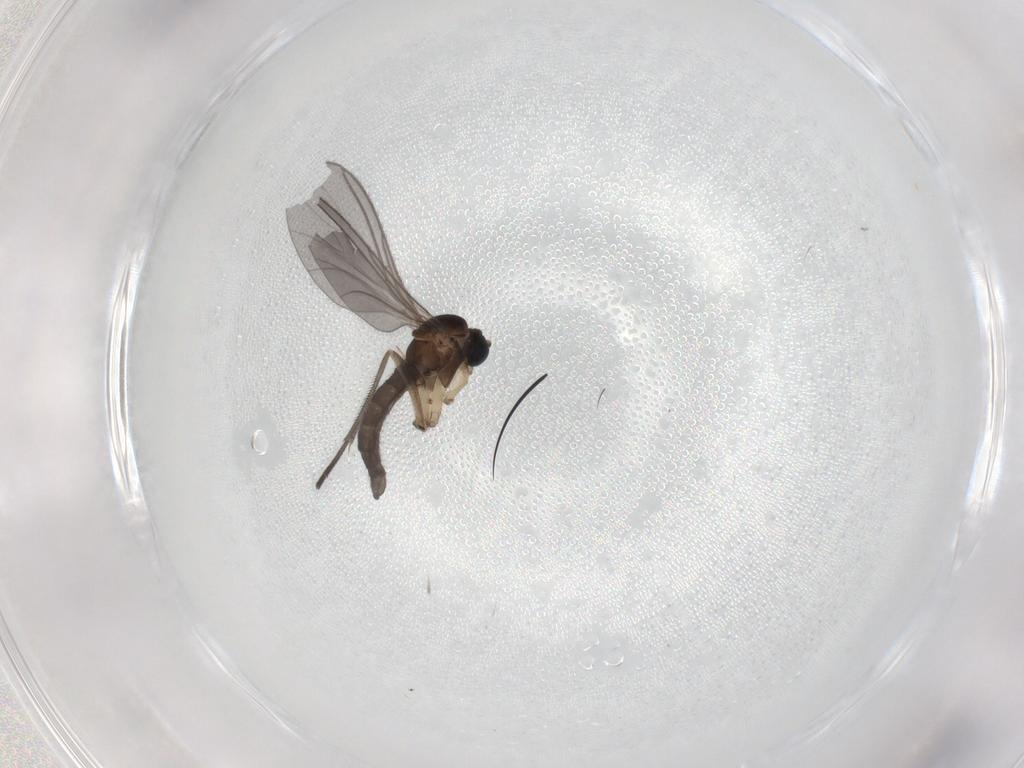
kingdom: Animalia
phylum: Arthropoda
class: Insecta
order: Diptera
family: Sciaridae
